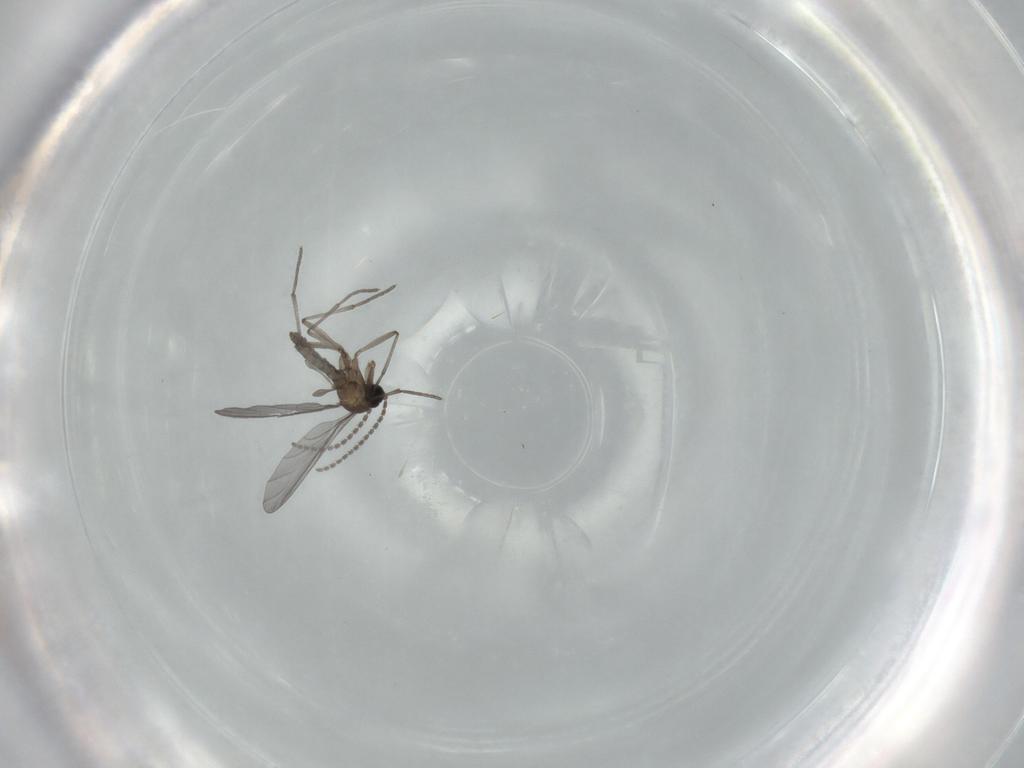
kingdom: Animalia
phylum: Arthropoda
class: Insecta
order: Diptera
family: Sciaridae
